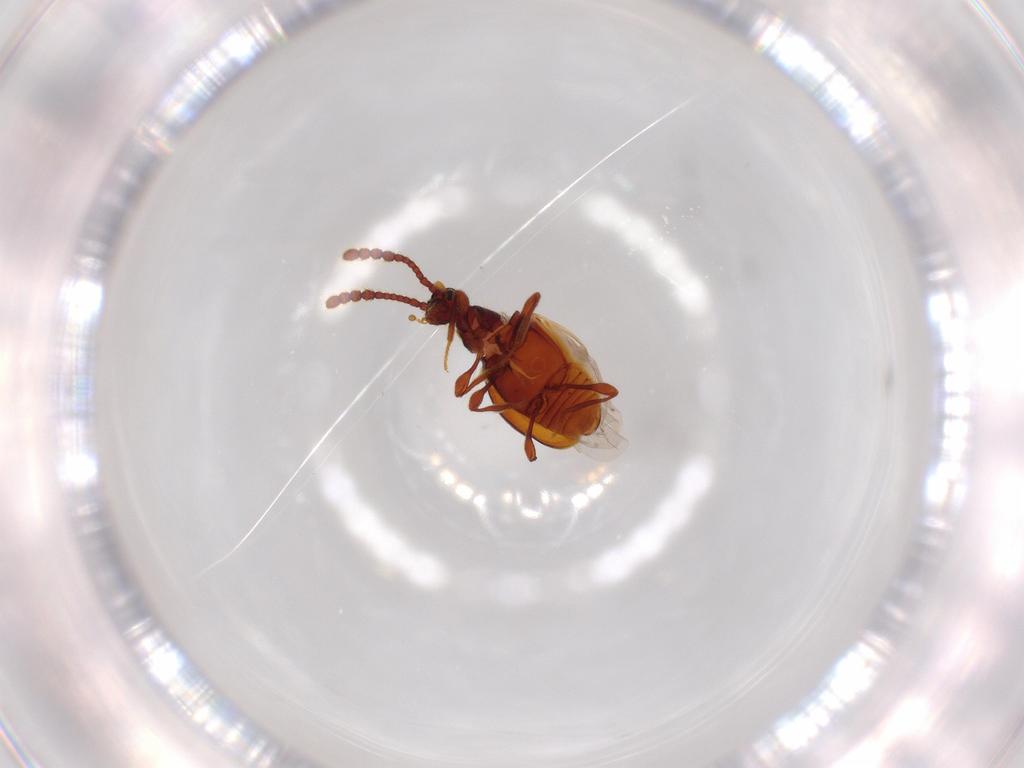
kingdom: Animalia
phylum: Arthropoda
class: Insecta
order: Coleoptera
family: Staphylinidae
